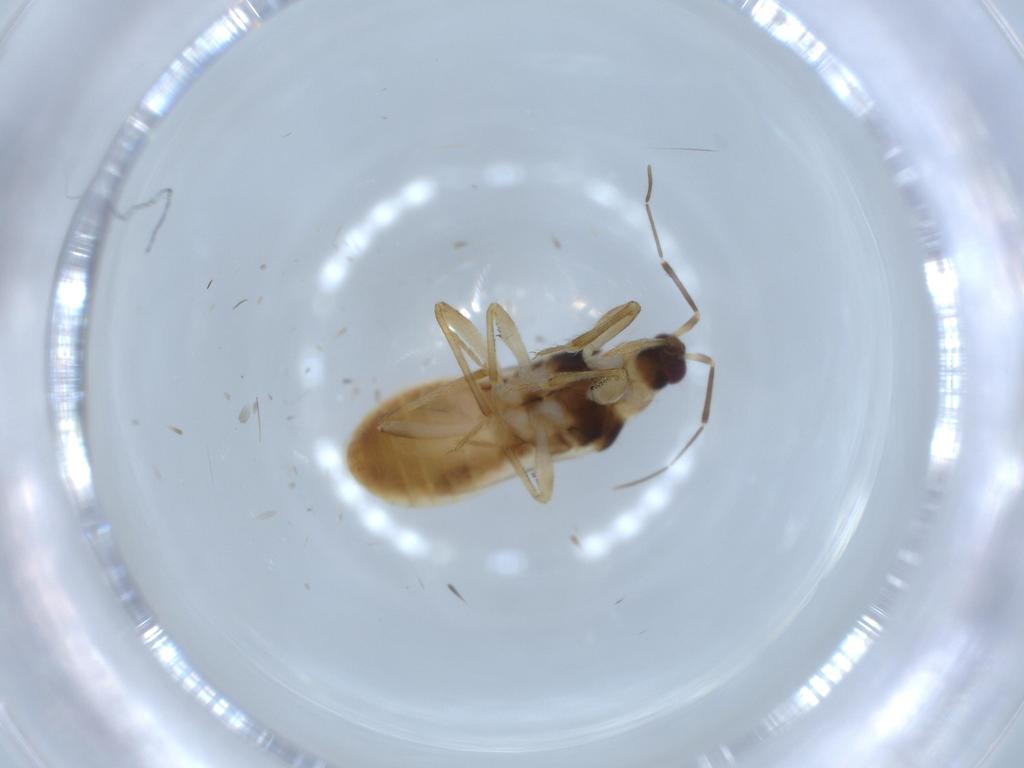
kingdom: Animalia
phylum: Arthropoda
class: Insecta
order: Hemiptera
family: Nabidae
